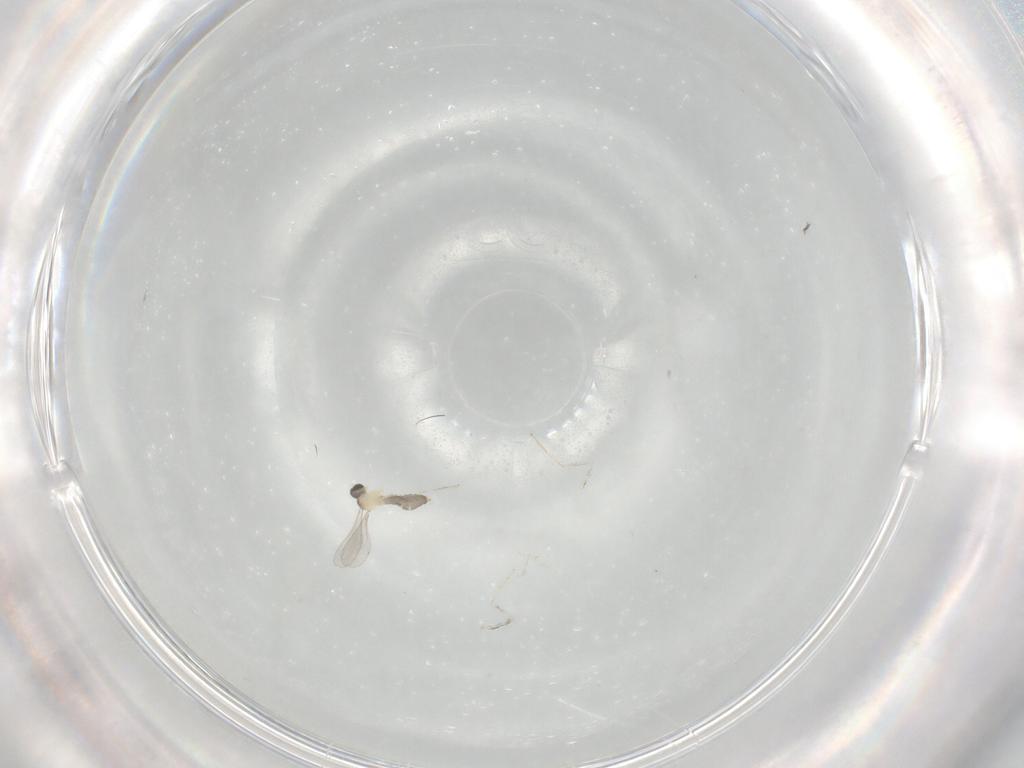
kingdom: Animalia
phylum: Arthropoda
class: Insecta
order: Diptera
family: Cecidomyiidae
